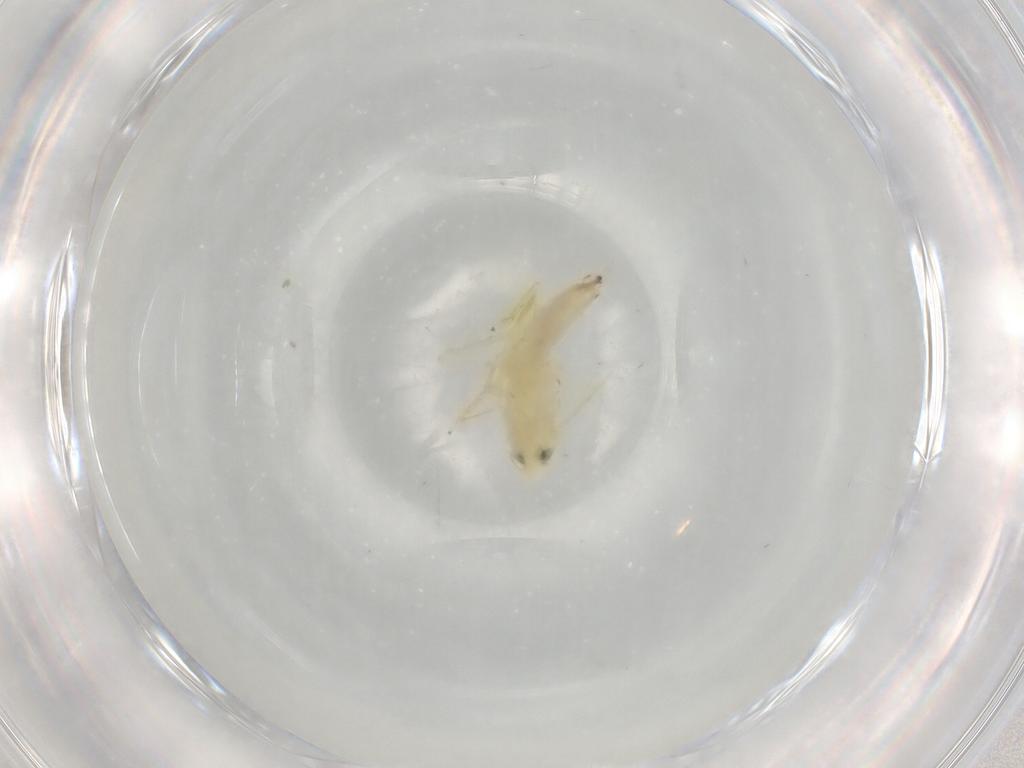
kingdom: Animalia
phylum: Arthropoda
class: Insecta
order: Hemiptera
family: Cicadellidae
